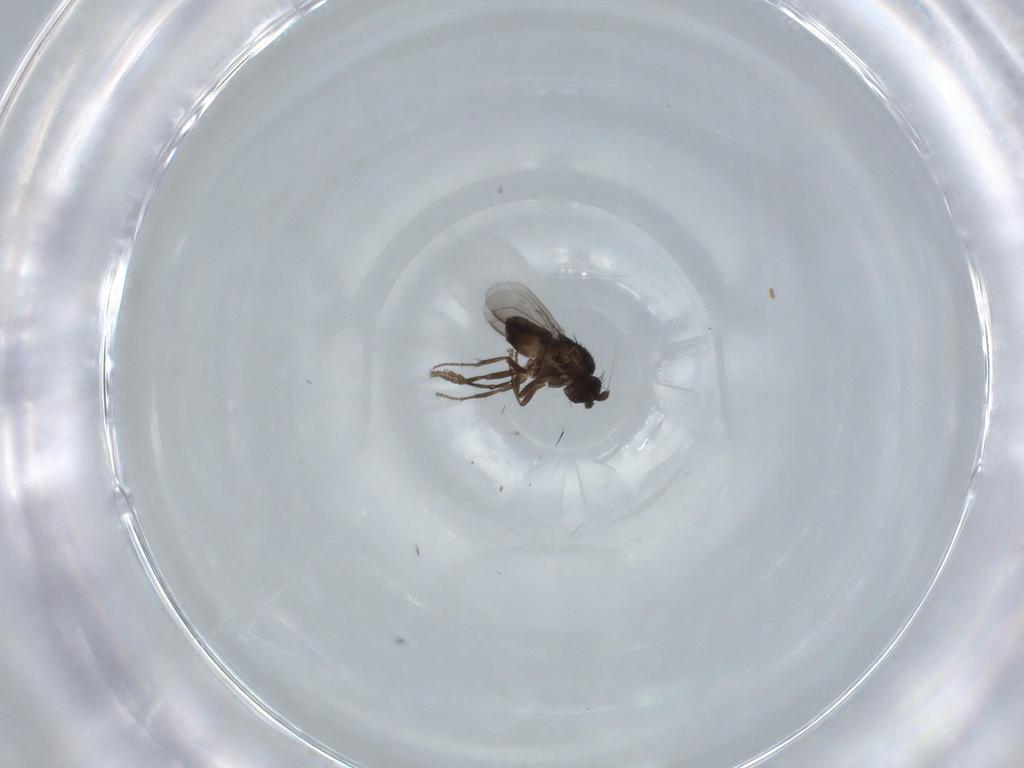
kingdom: Animalia
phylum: Arthropoda
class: Insecta
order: Diptera
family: Sphaeroceridae
